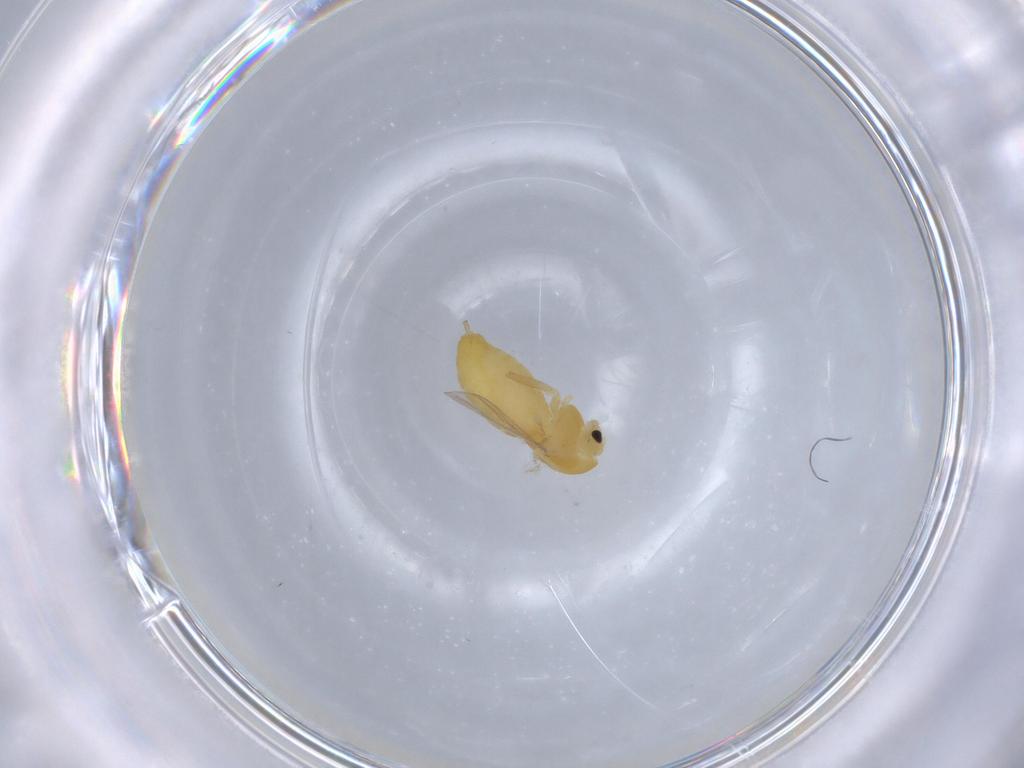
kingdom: Animalia
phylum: Arthropoda
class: Insecta
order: Diptera
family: Chironomidae
